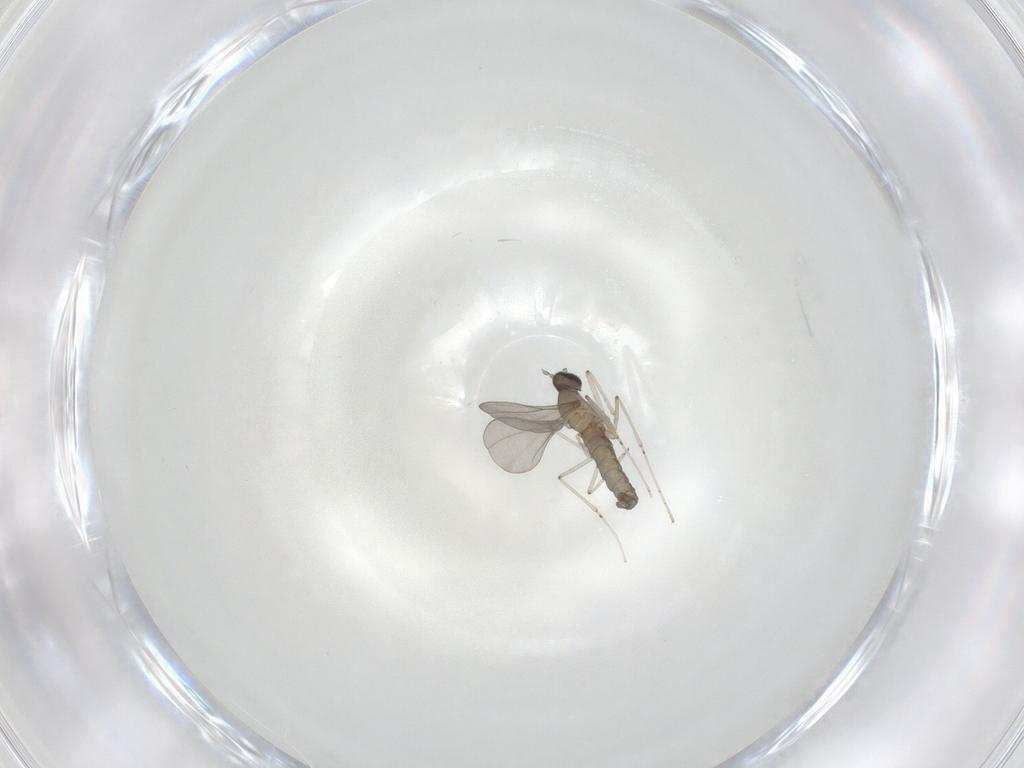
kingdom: Animalia
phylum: Arthropoda
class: Insecta
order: Diptera
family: Cecidomyiidae
